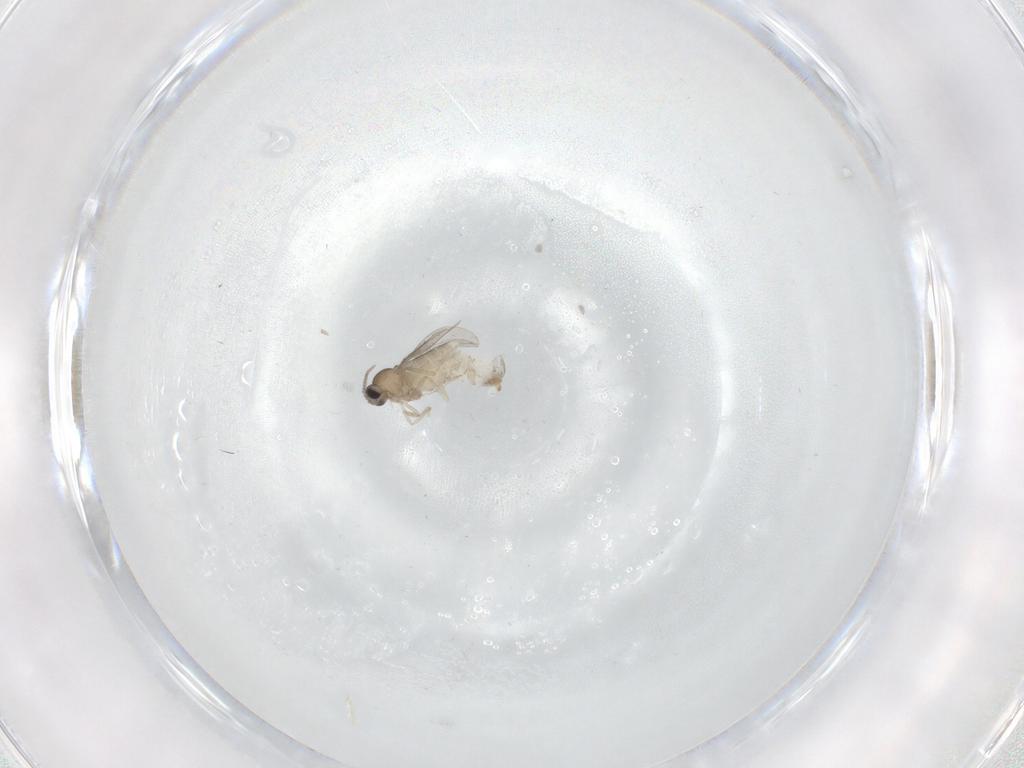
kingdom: Animalia
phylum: Arthropoda
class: Insecta
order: Diptera
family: Cecidomyiidae
